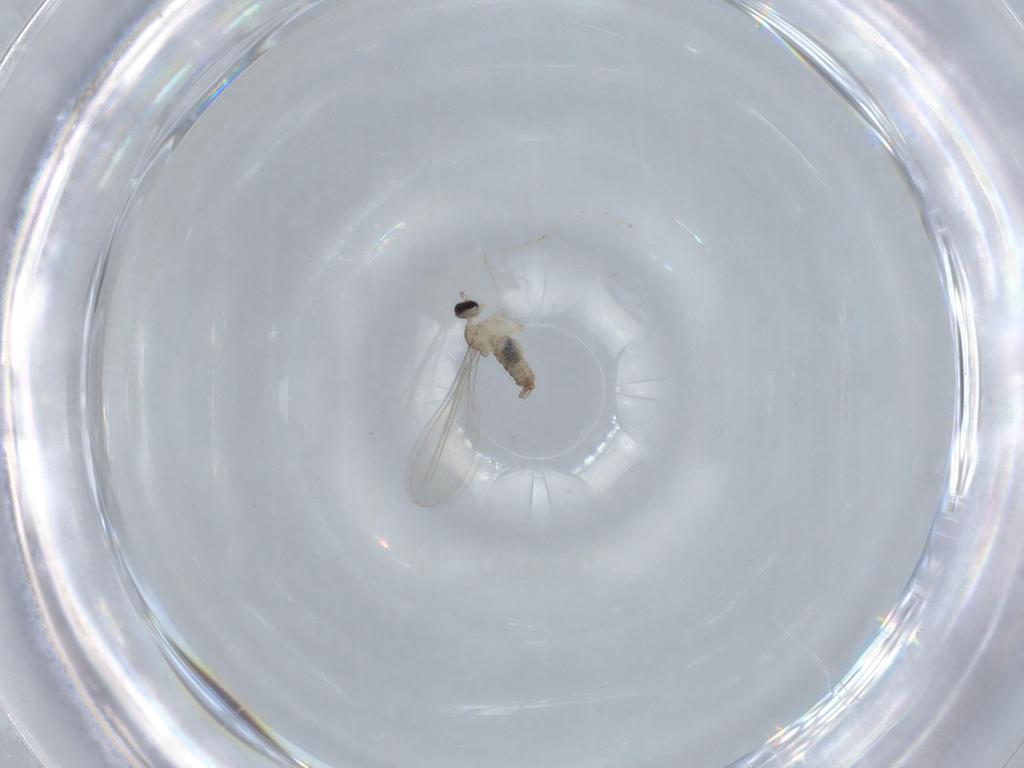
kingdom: Animalia
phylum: Arthropoda
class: Insecta
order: Diptera
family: Cecidomyiidae
